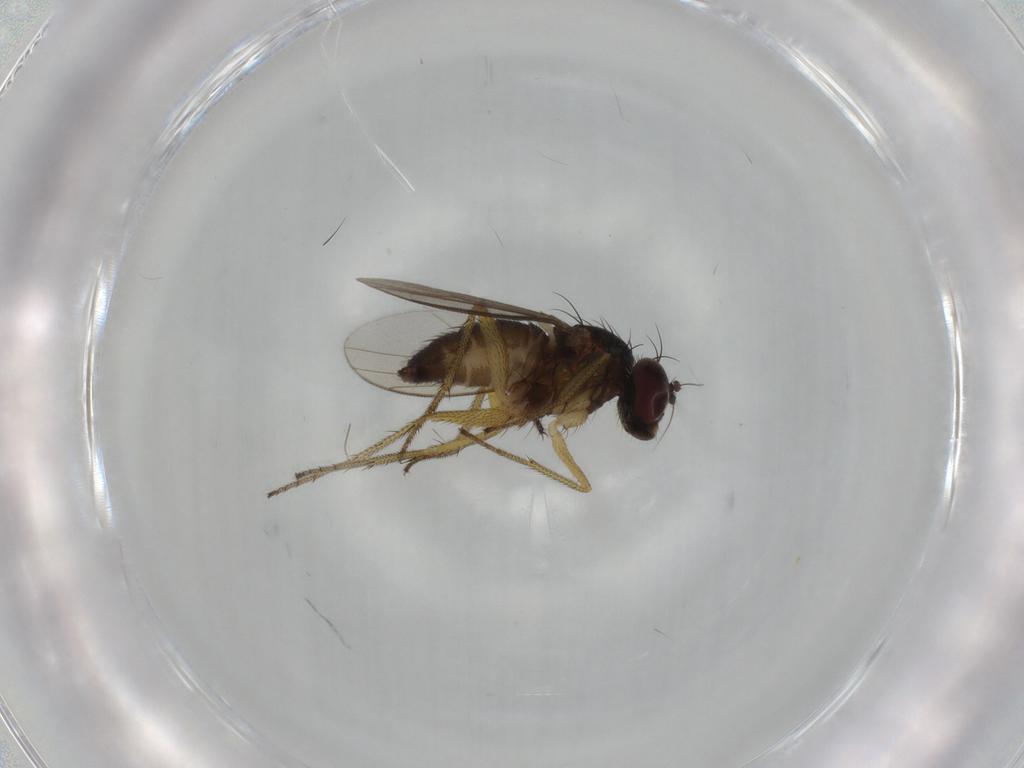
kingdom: Animalia
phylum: Arthropoda
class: Insecta
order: Diptera
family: Dolichopodidae
